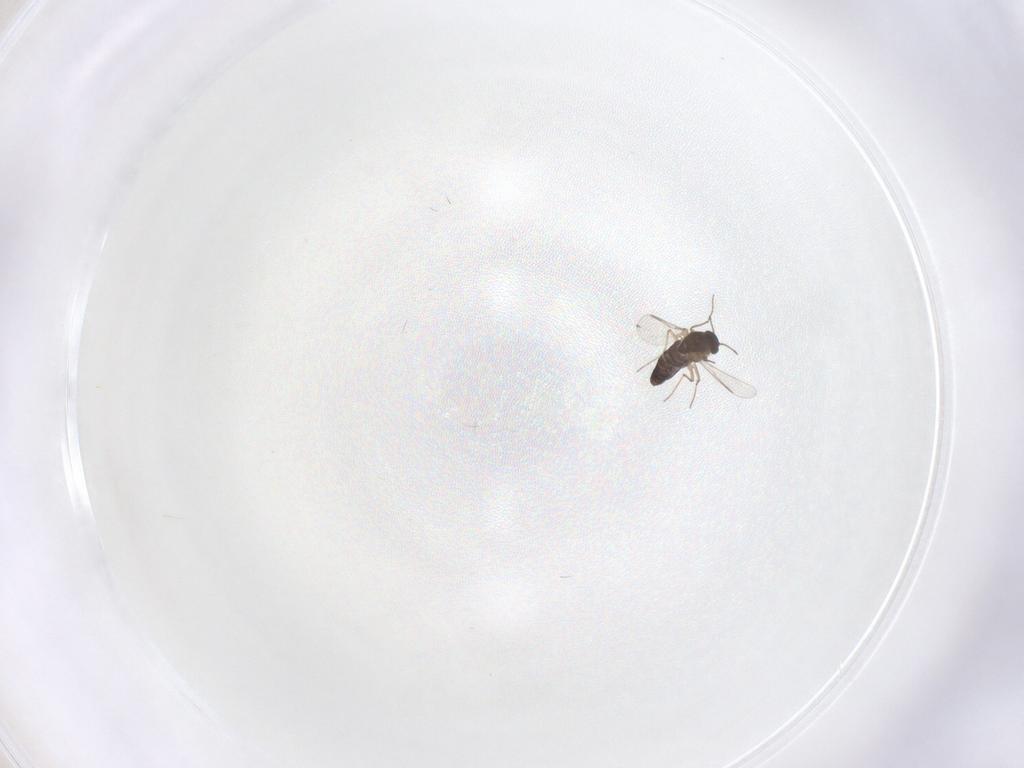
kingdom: Animalia
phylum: Arthropoda
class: Insecta
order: Diptera
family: Chironomidae
